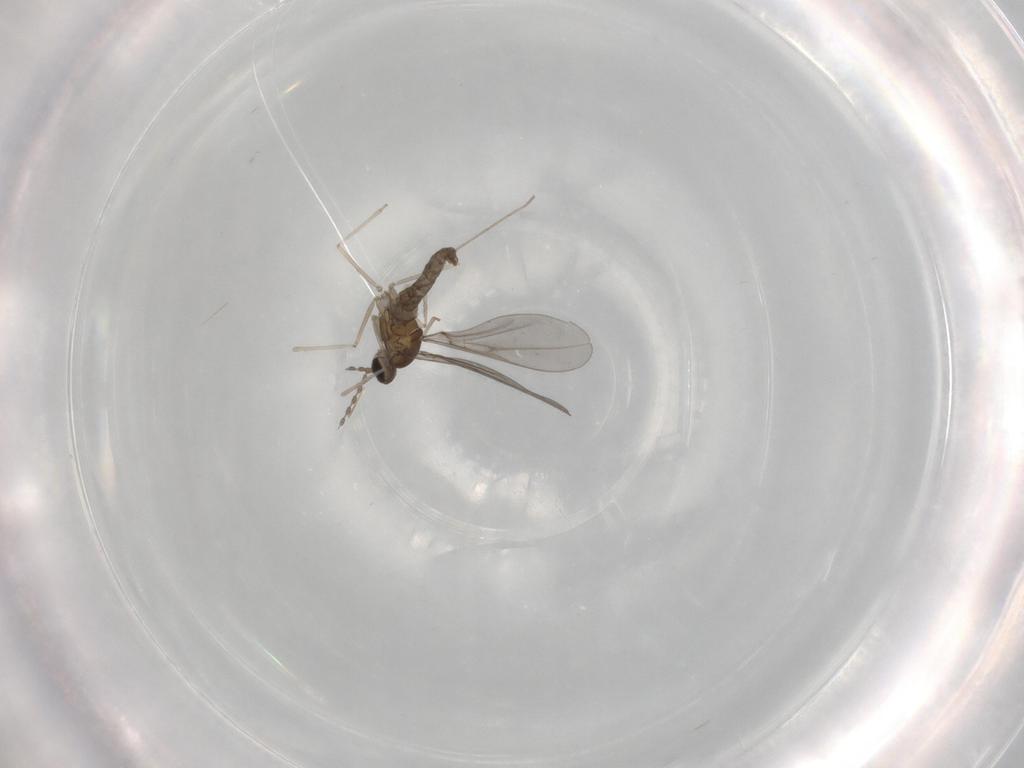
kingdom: Animalia
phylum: Arthropoda
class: Insecta
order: Diptera
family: Cecidomyiidae
